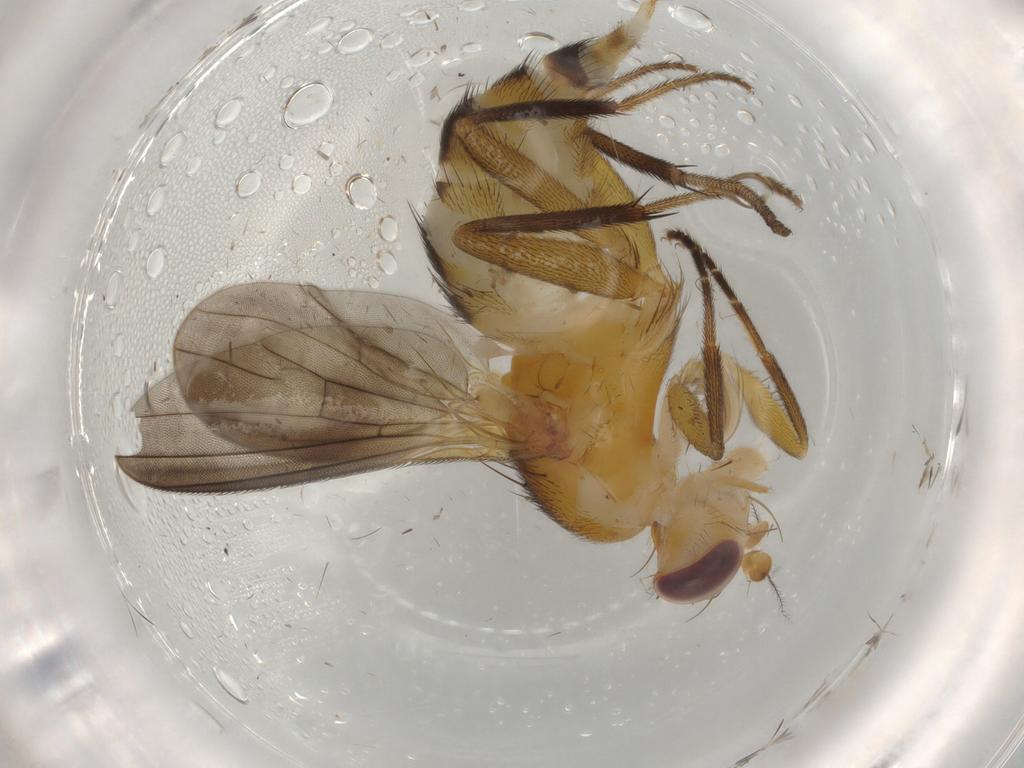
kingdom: Animalia
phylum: Arthropoda
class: Insecta
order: Diptera
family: Clusiidae
